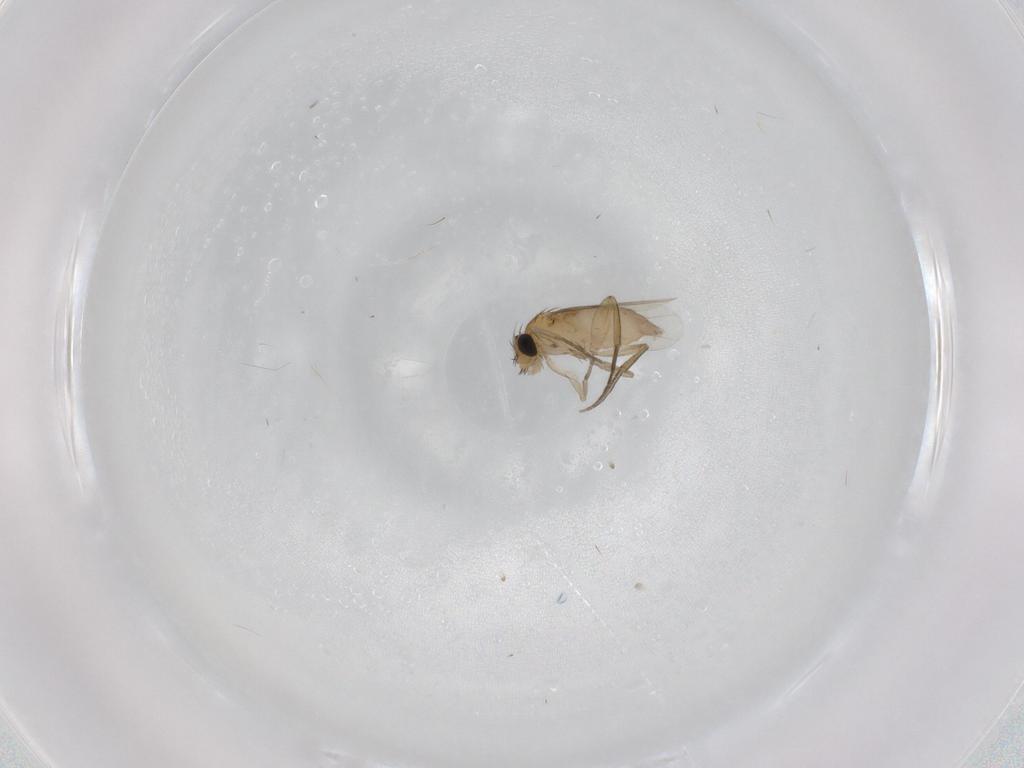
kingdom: Animalia
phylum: Arthropoda
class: Insecta
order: Diptera
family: Phoridae
